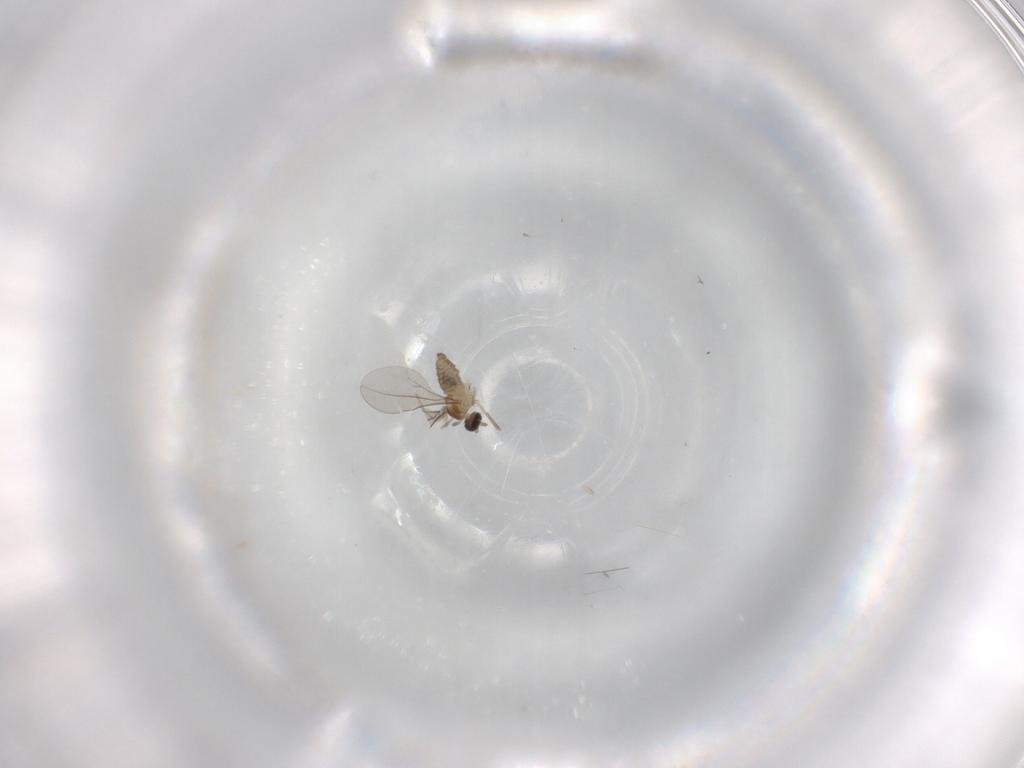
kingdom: Animalia
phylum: Arthropoda
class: Insecta
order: Diptera
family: Cecidomyiidae
